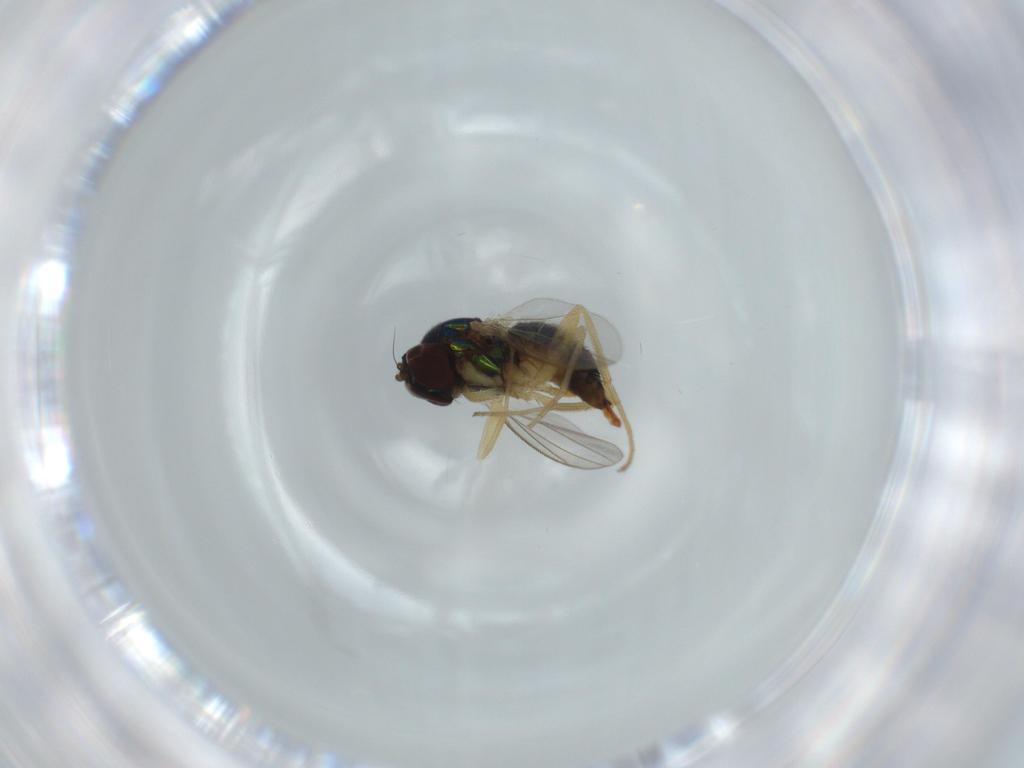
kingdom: Animalia
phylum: Arthropoda
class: Insecta
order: Diptera
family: Dolichopodidae
